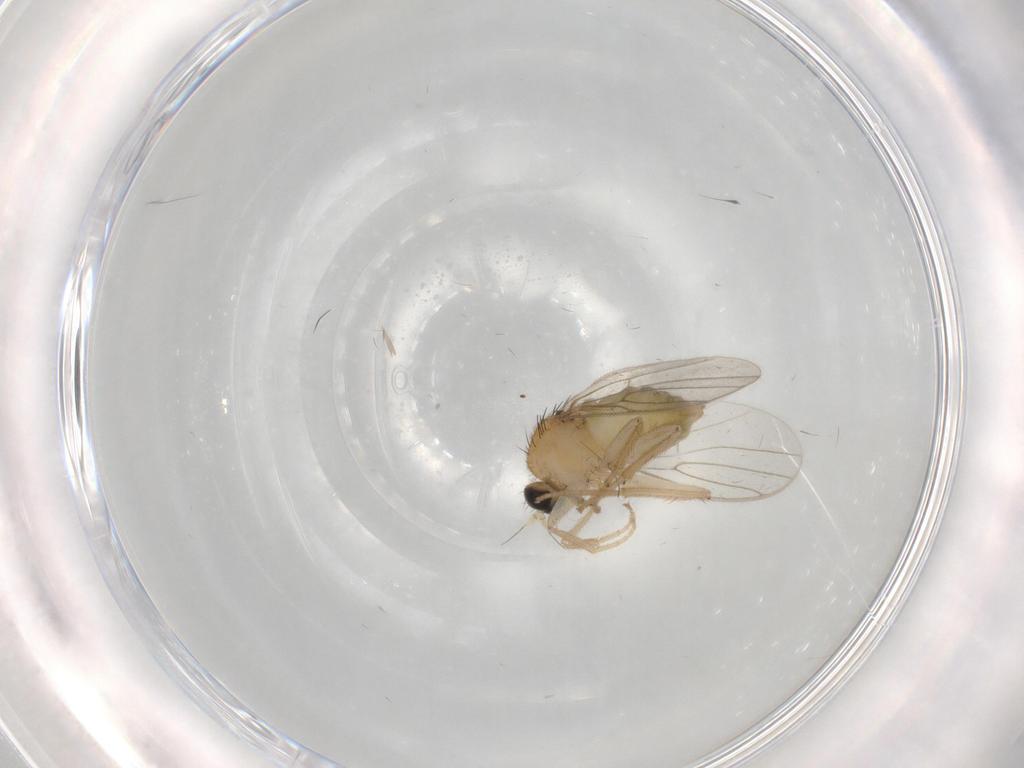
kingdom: Animalia
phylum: Arthropoda
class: Insecta
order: Diptera
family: Hybotidae
